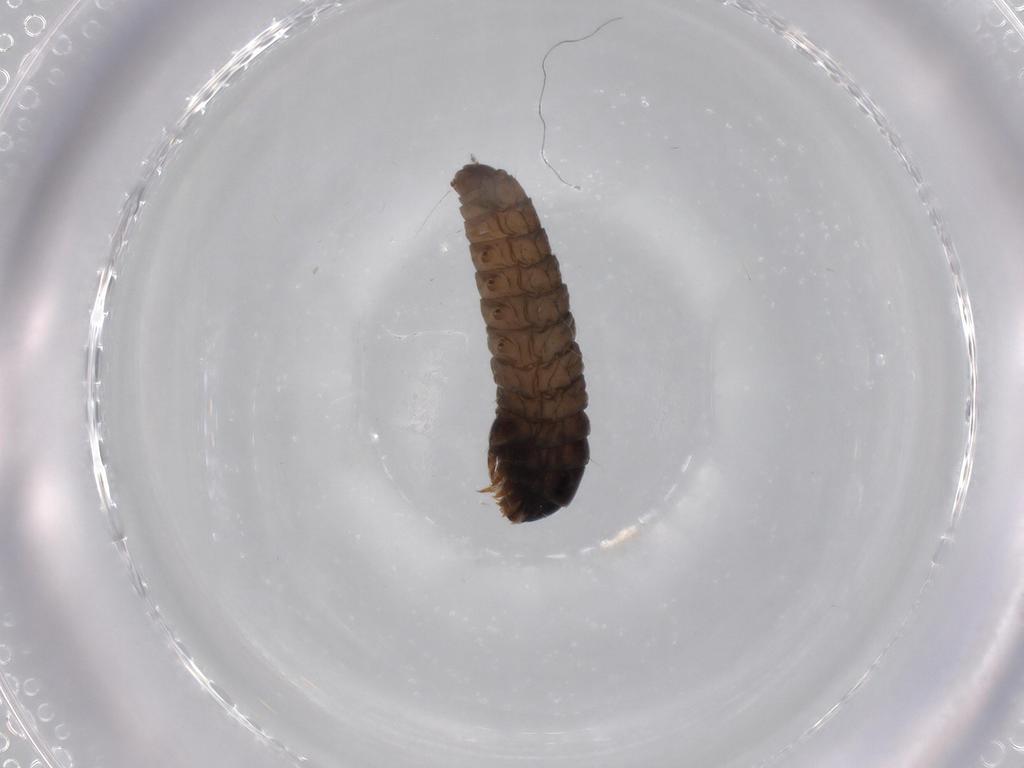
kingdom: Animalia
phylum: Arthropoda
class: Insecta
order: Lepidoptera
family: Psychidae
